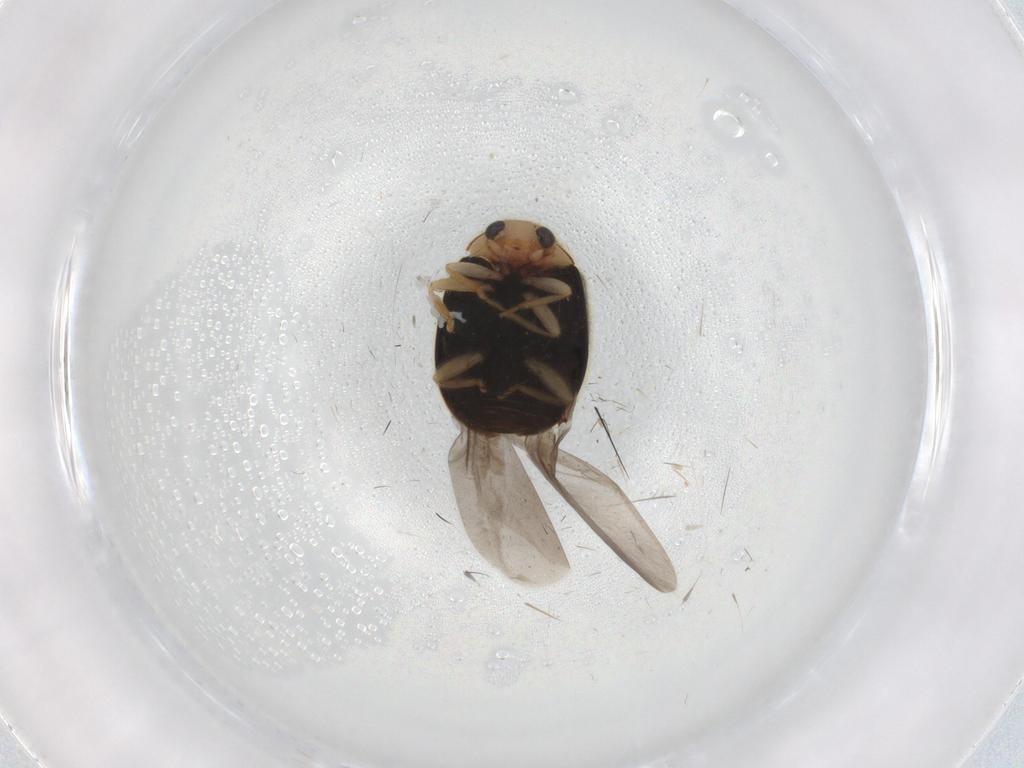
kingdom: Animalia
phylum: Arthropoda
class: Insecta
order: Coleoptera
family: Coccinellidae
